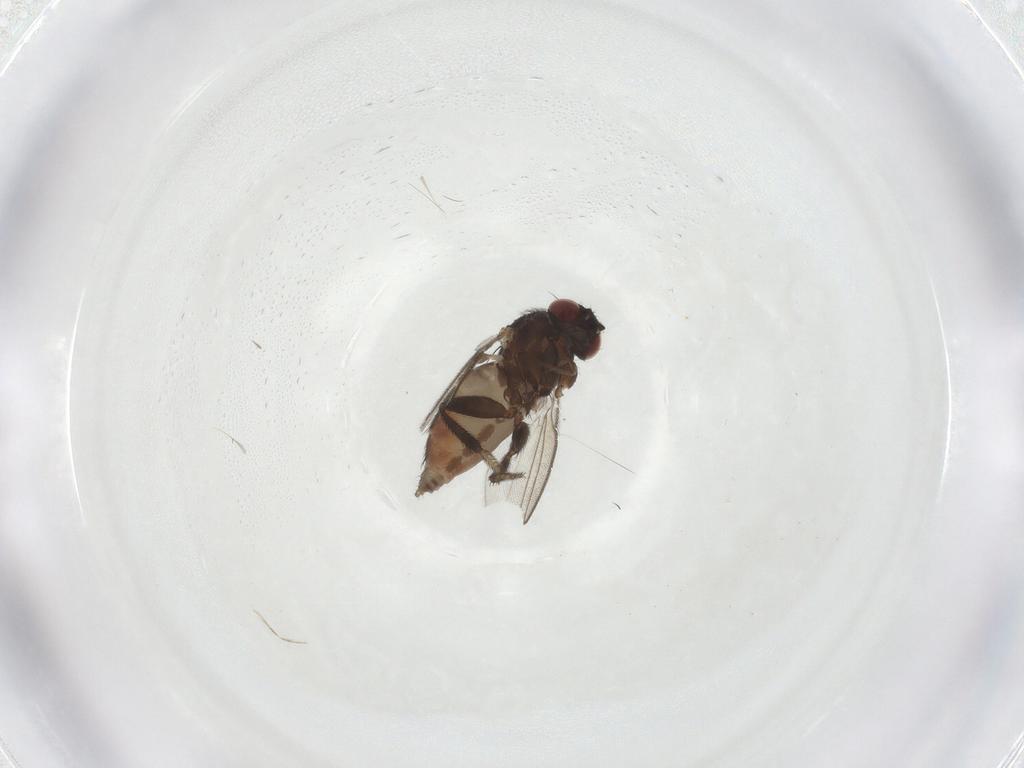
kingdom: Animalia
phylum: Arthropoda
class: Insecta
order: Diptera
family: Milichiidae
